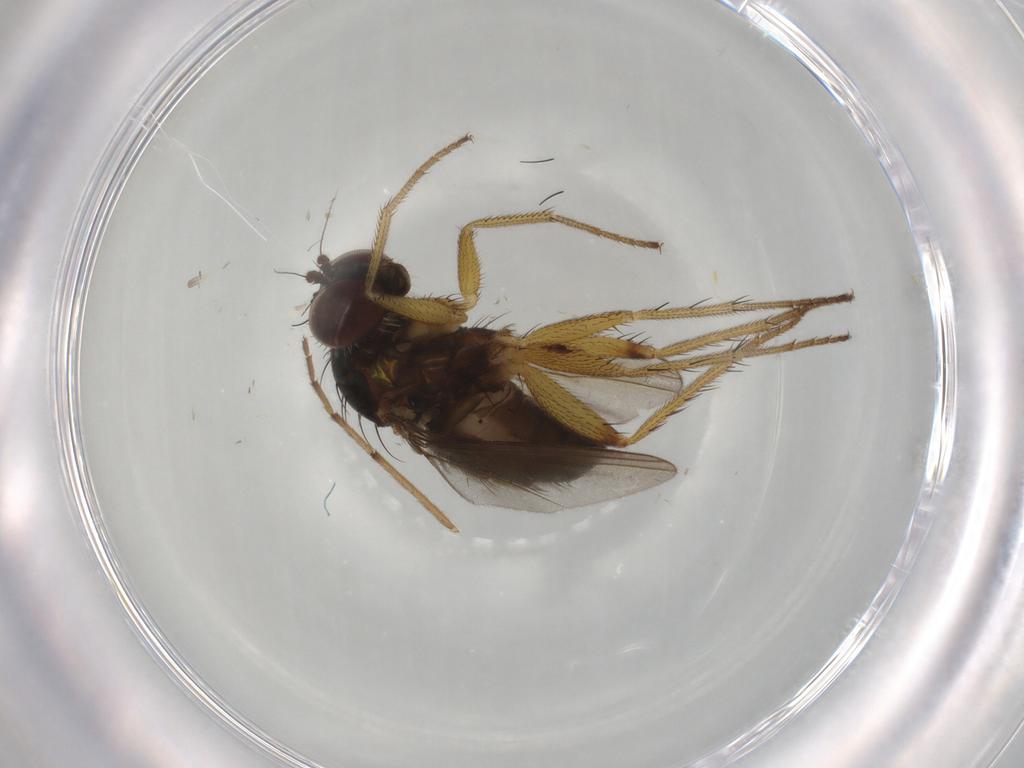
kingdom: Animalia
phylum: Arthropoda
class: Insecta
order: Diptera
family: Dolichopodidae
